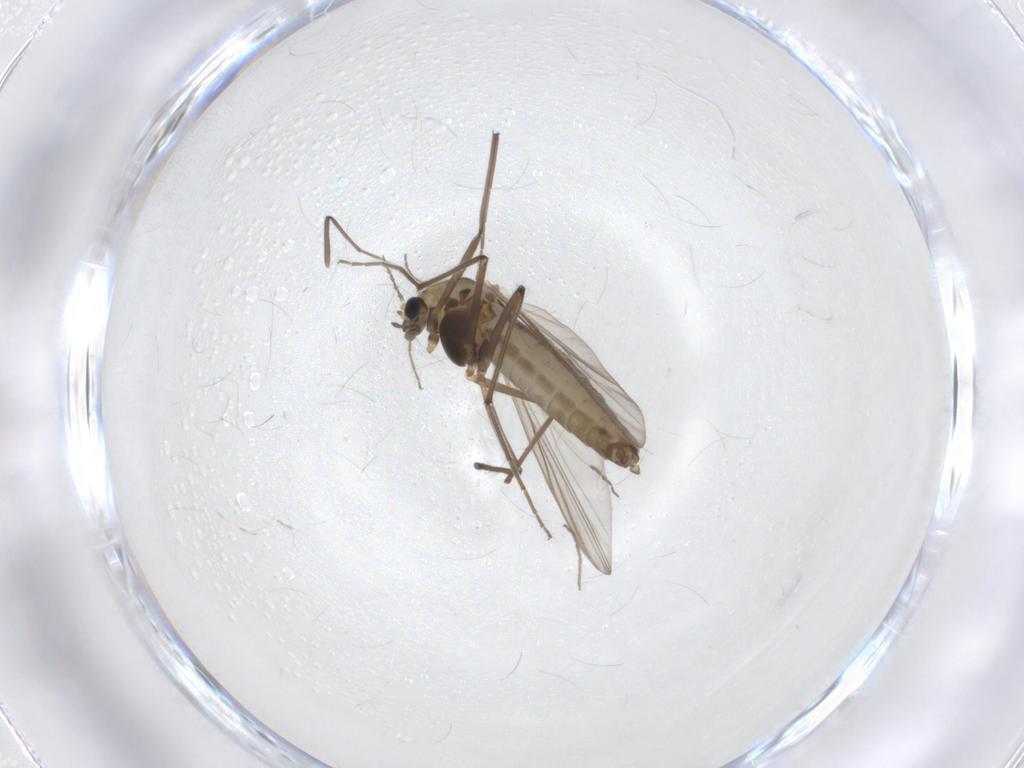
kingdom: Animalia
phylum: Arthropoda
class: Insecta
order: Diptera
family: Chironomidae
